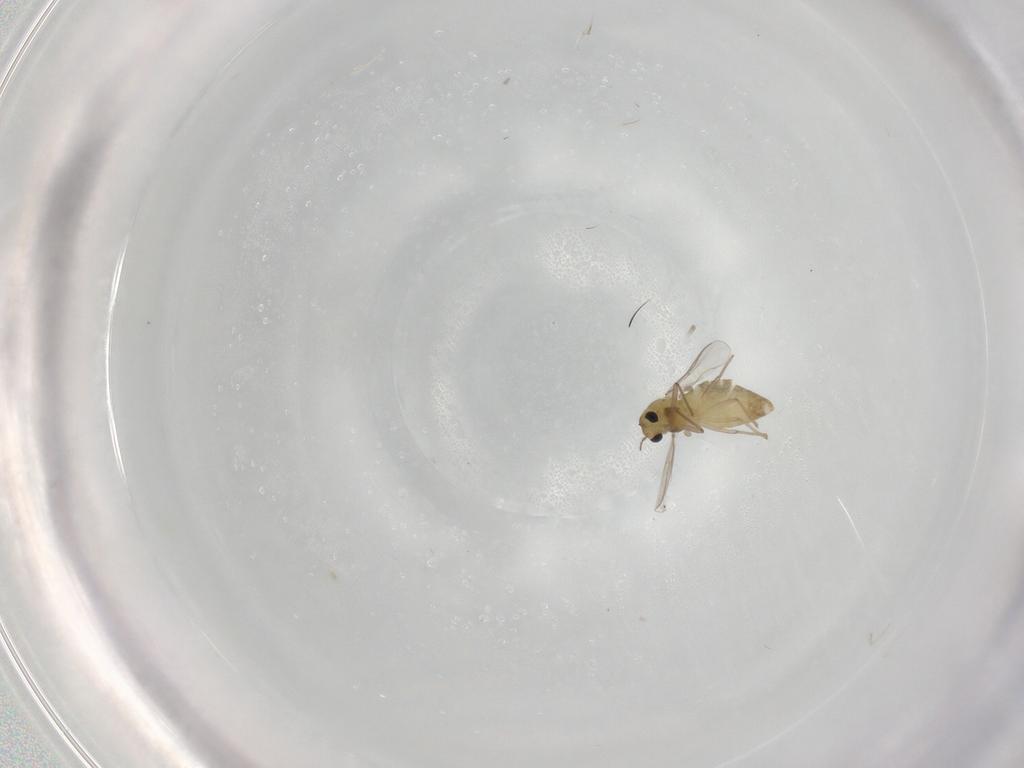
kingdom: Animalia
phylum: Arthropoda
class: Insecta
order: Diptera
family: Chironomidae
